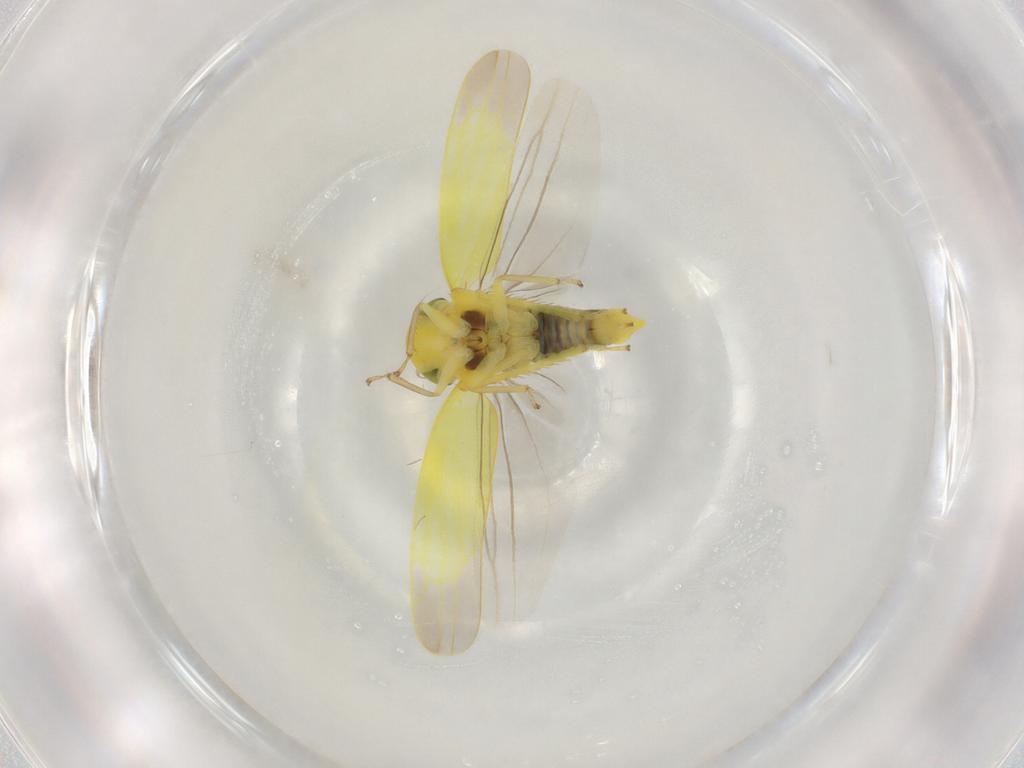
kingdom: Animalia
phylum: Arthropoda
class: Insecta
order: Hemiptera
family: Cicadellidae
